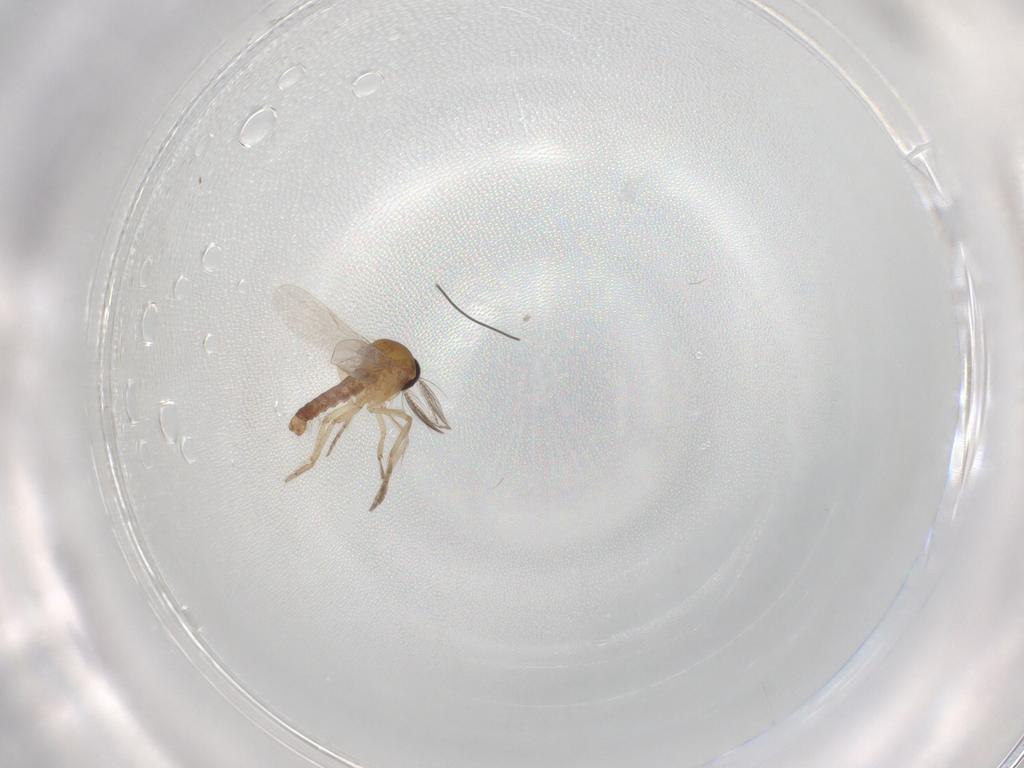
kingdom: Animalia
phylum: Arthropoda
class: Insecta
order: Diptera
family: Ceratopogonidae
